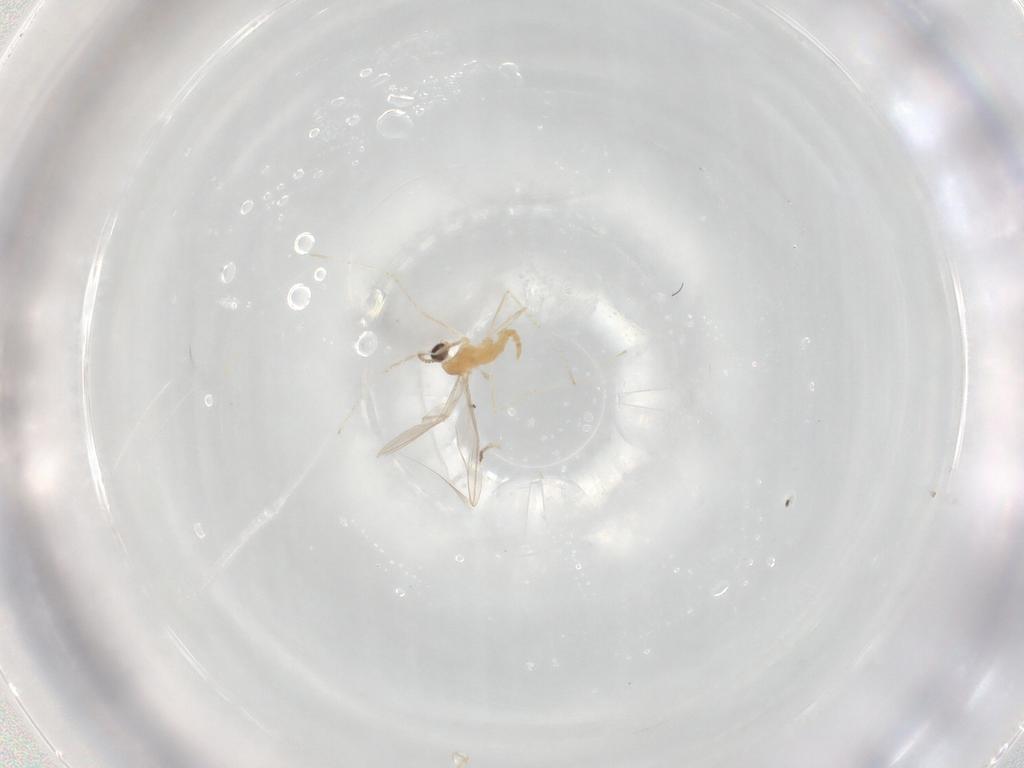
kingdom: Animalia
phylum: Arthropoda
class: Insecta
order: Diptera
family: Cecidomyiidae
